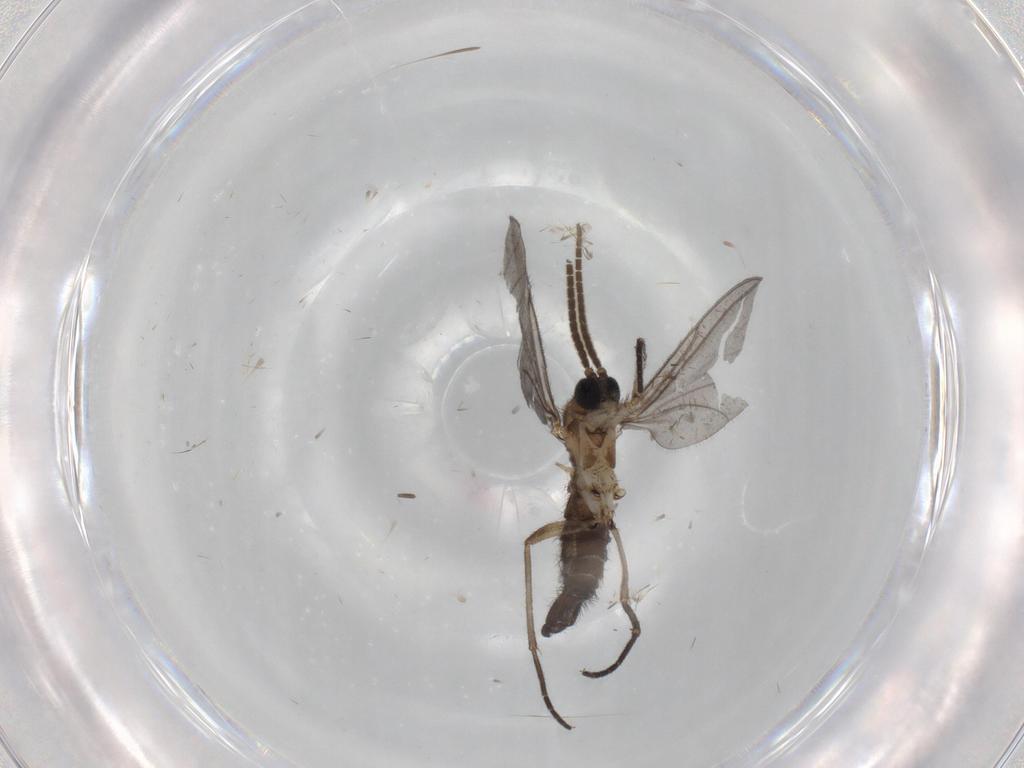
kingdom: Animalia
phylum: Arthropoda
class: Insecta
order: Diptera
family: Sciaridae
